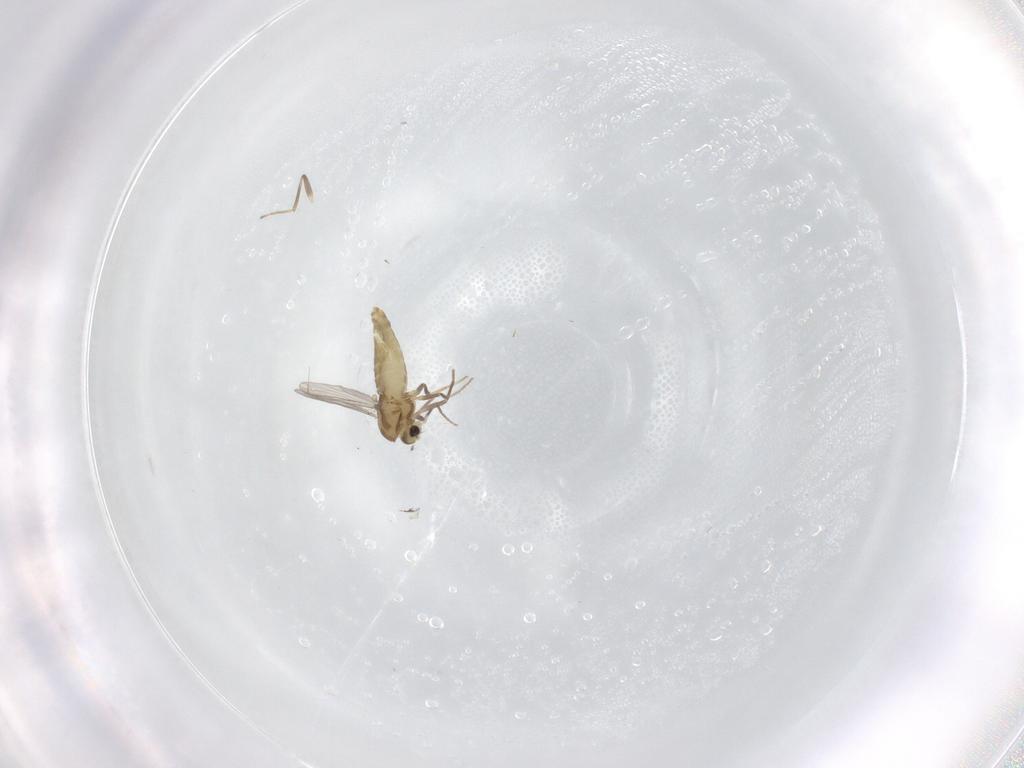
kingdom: Animalia
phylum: Arthropoda
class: Insecta
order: Diptera
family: Chironomidae
